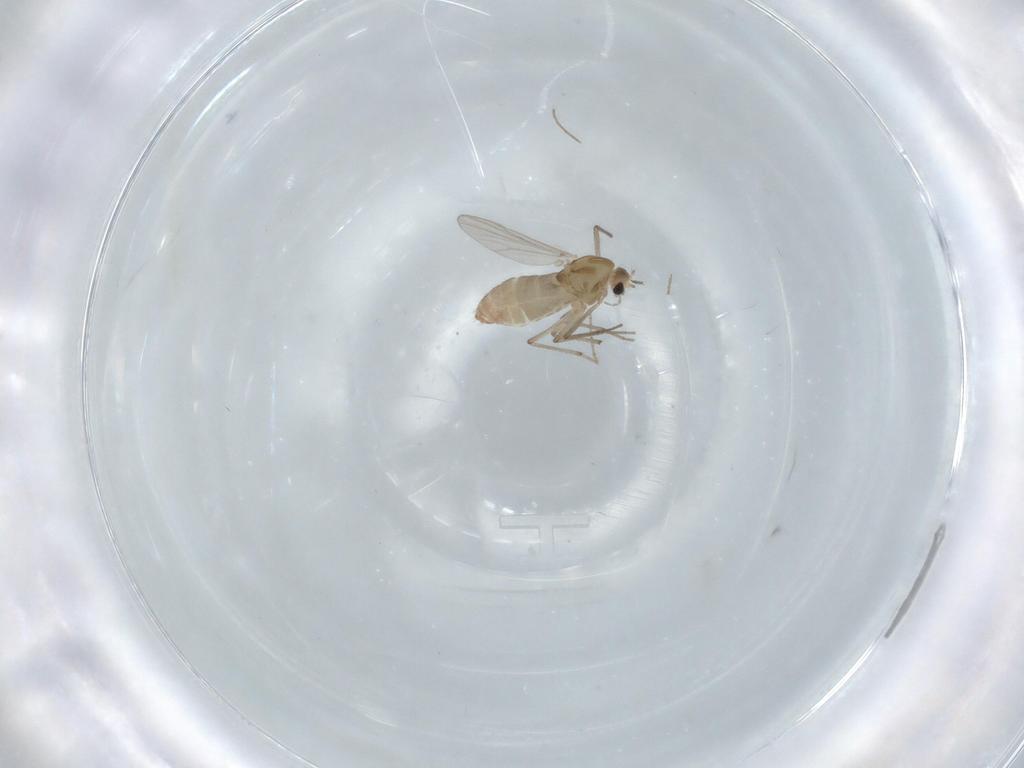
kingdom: Animalia
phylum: Arthropoda
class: Insecta
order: Diptera
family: Chironomidae
